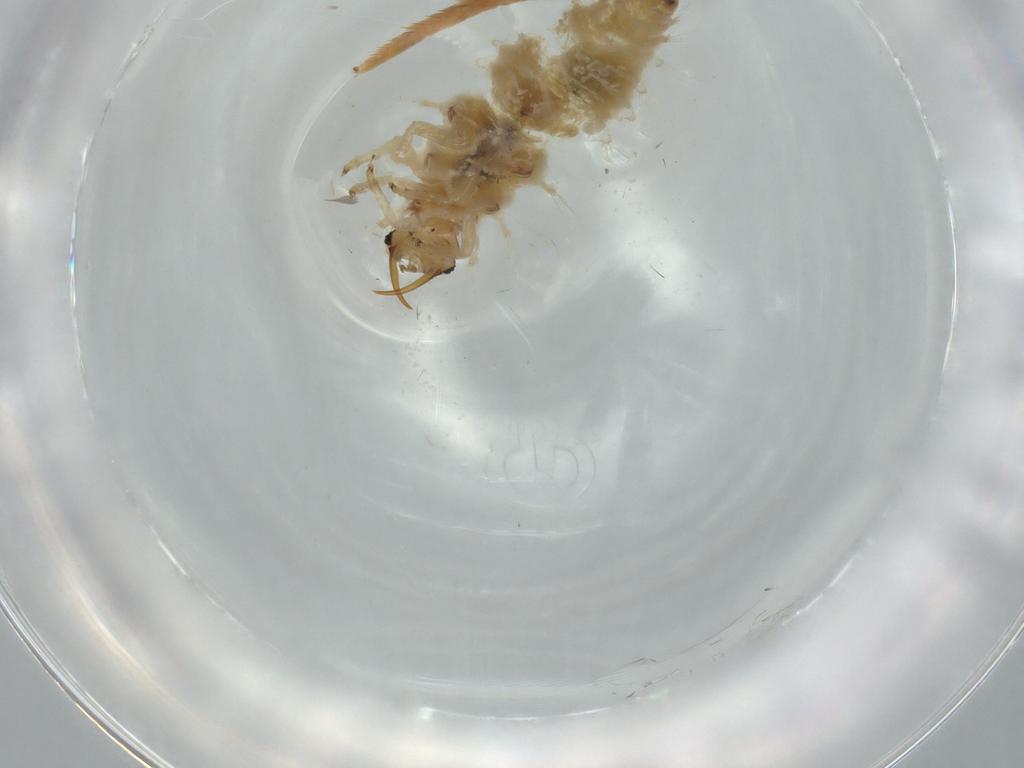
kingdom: Animalia
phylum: Arthropoda
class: Insecta
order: Neuroptera
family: Chrysopidae
